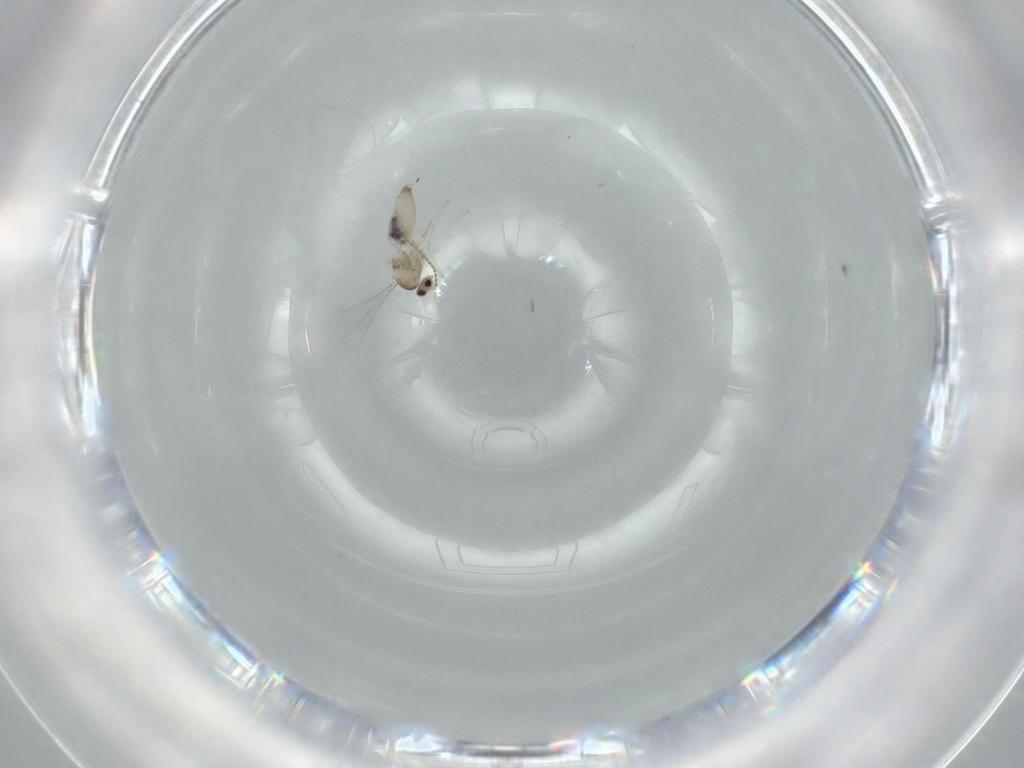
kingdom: Animalia
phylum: Arthropoda
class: Insecta
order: Diptera
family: Cecidomyiidae
